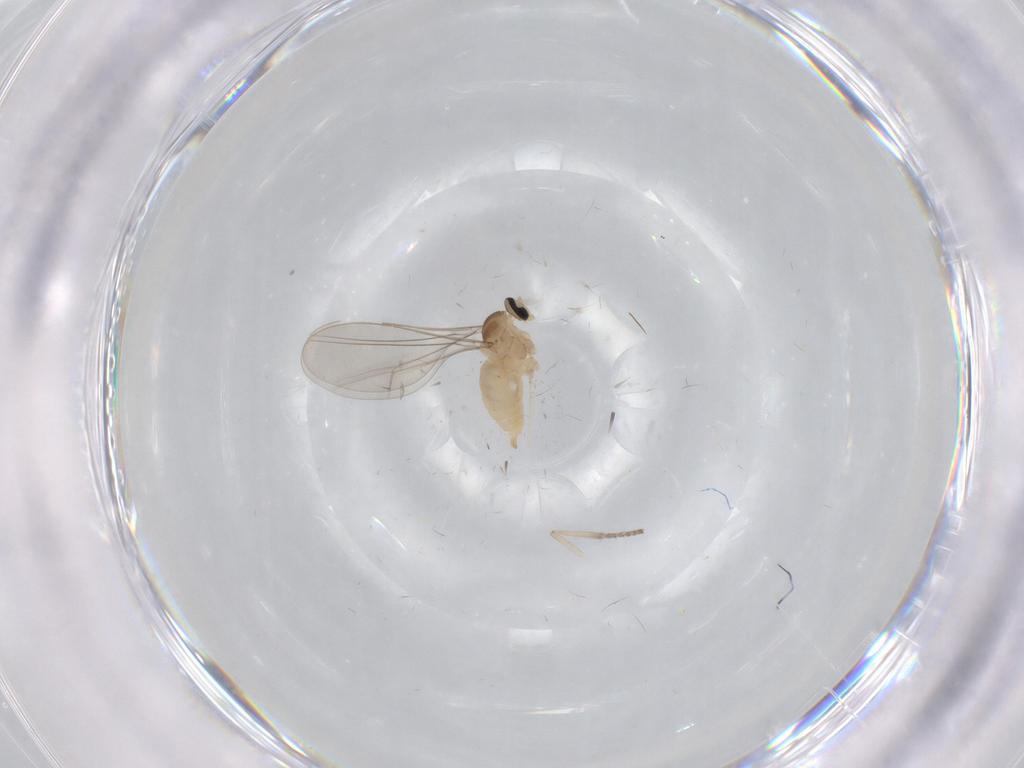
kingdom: Animalia
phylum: Arthropoda
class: Insecta
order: Diptera
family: Cecidomyiidae
